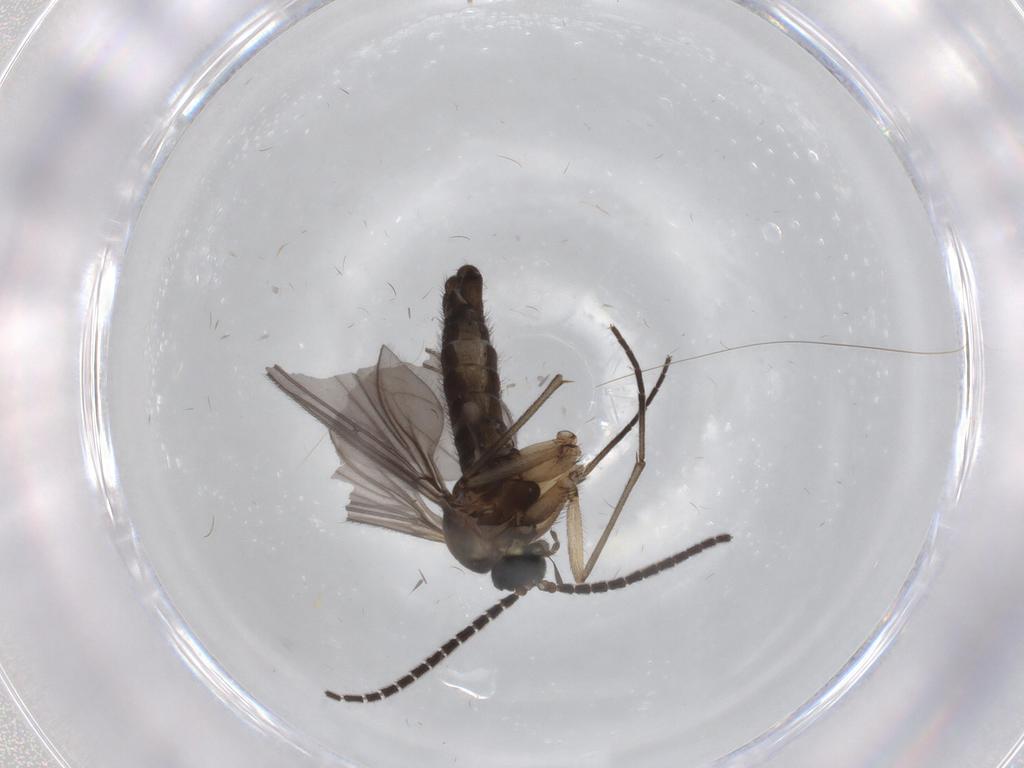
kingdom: Animalia
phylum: Arthropoda
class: Insecta
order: Diptera
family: Sciaridae
